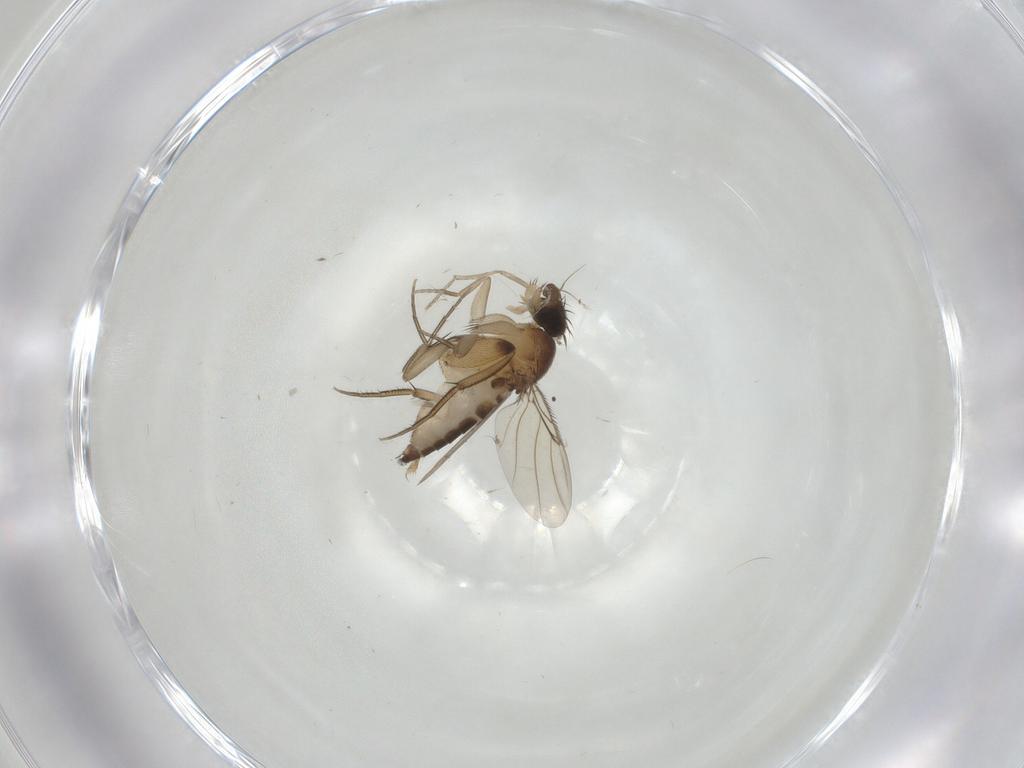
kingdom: Animalia
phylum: Arthropoda
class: Insecta
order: Diptera
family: Phoridae
